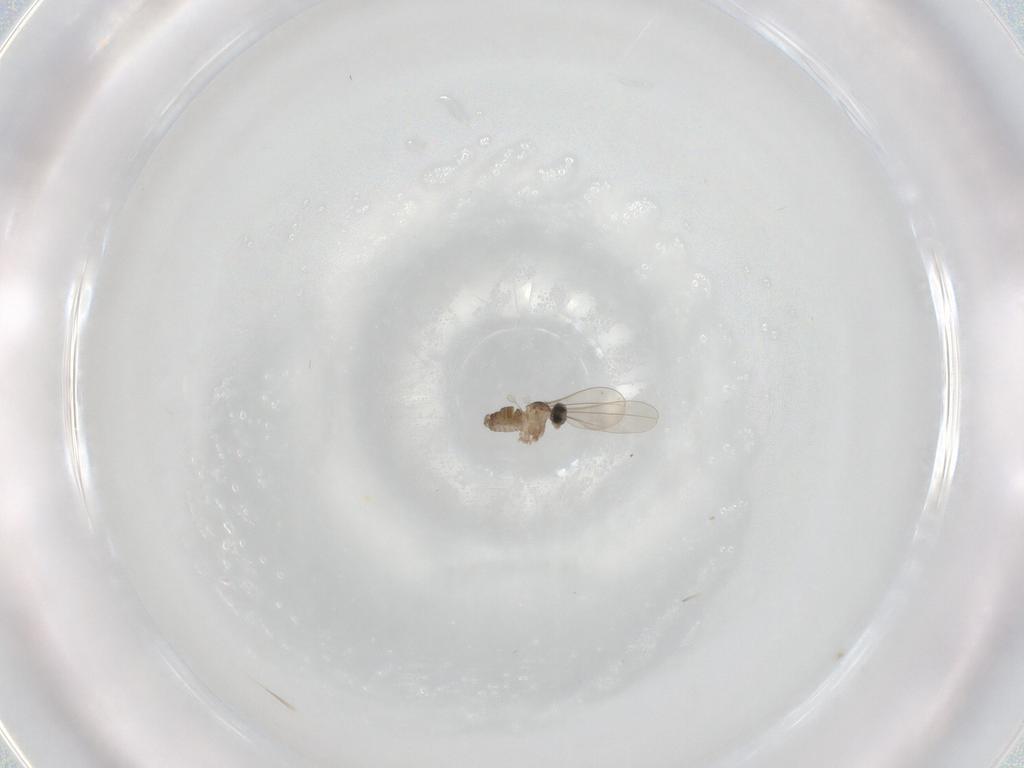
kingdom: Animalia
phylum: Arthropoda
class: Insecta
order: Diptera
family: Cecidomyiidae
